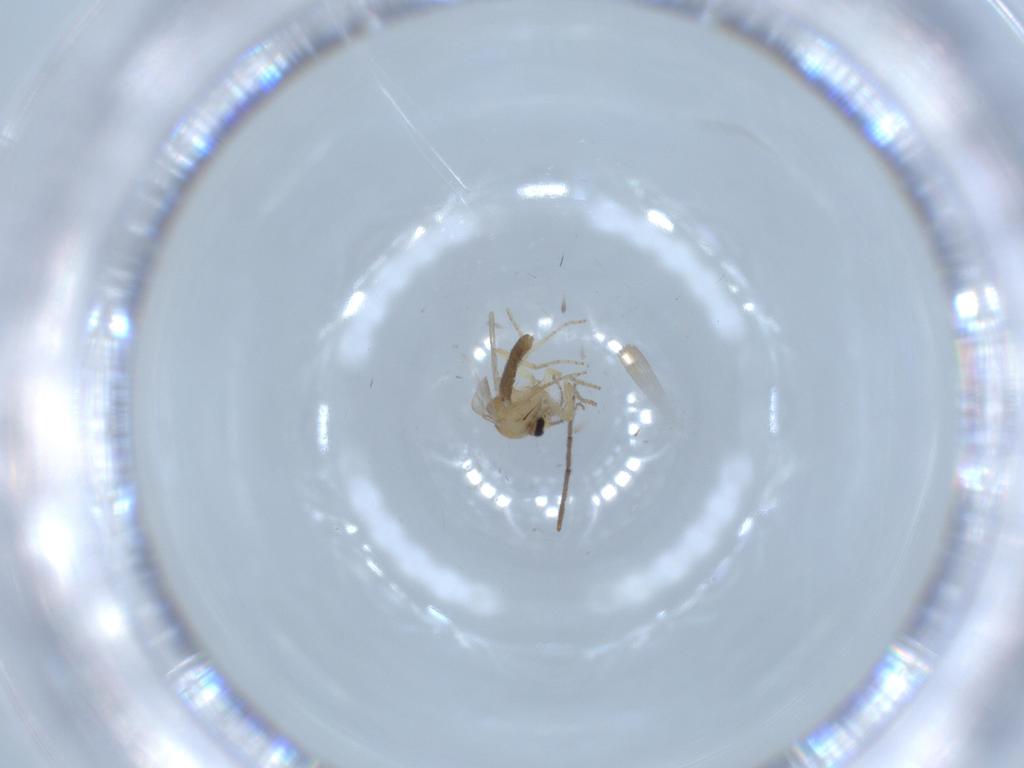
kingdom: Animalia
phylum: Arthropoda
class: Insecta
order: Diptera
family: Ceratopogonidae
